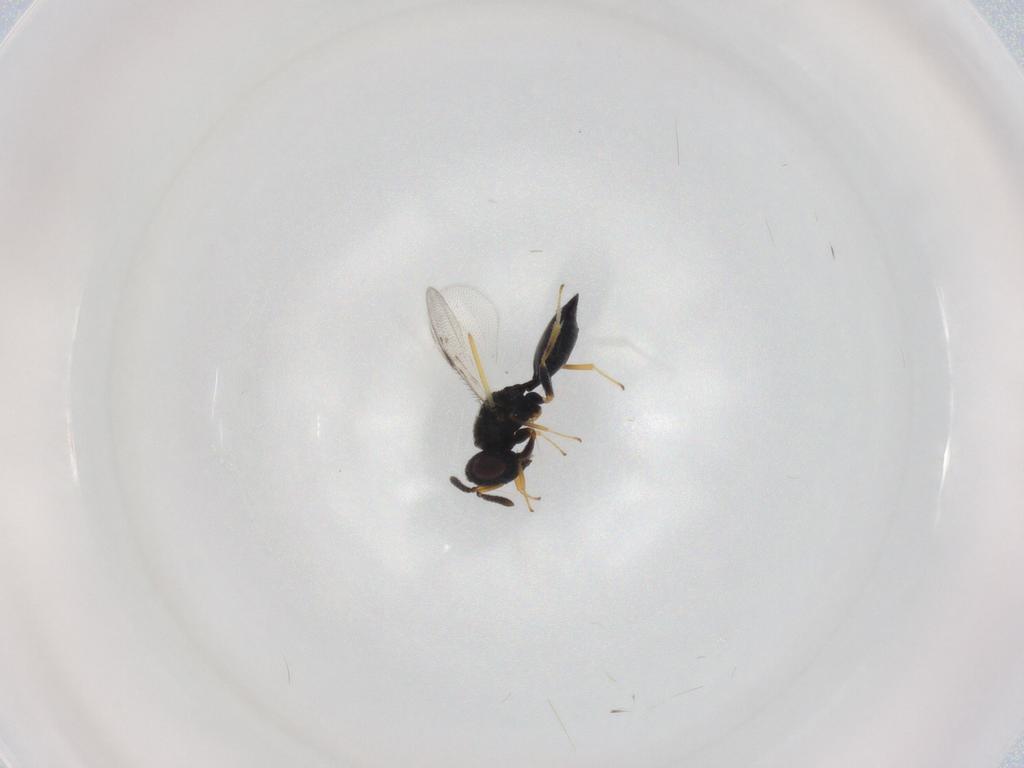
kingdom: Animalia
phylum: Arthropoda
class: Insecta
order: Hymenoptera
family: Pteromalidae
